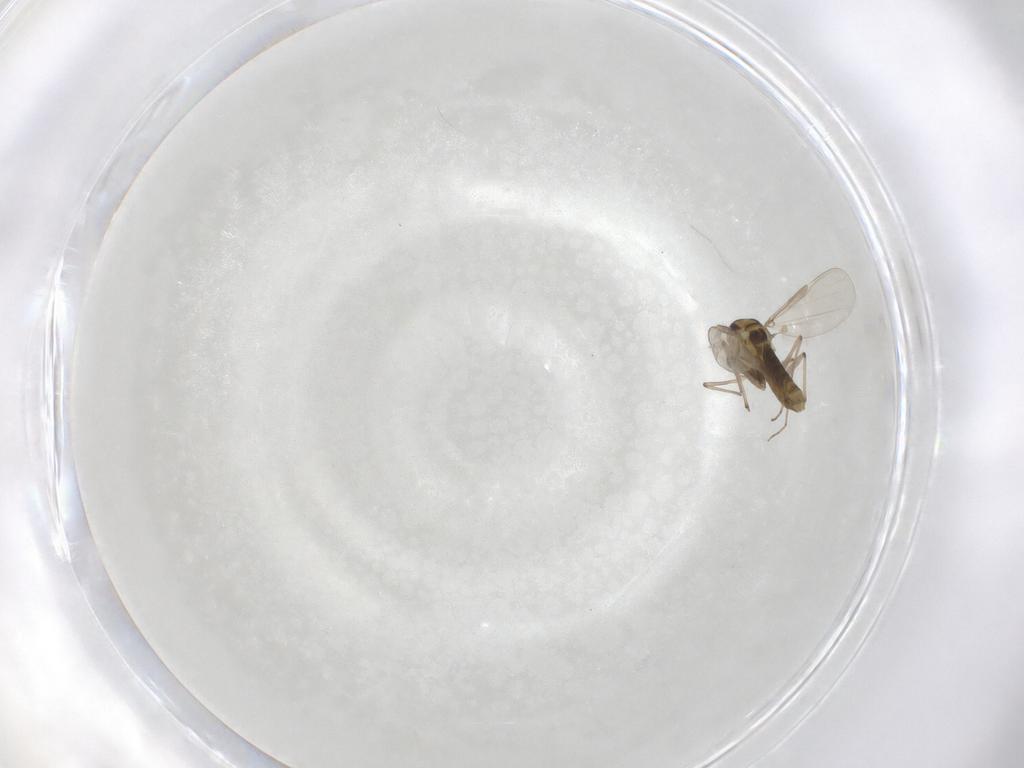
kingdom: Animalia
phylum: Arthropoda
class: Insecta
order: Diptera
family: Chironomidae
